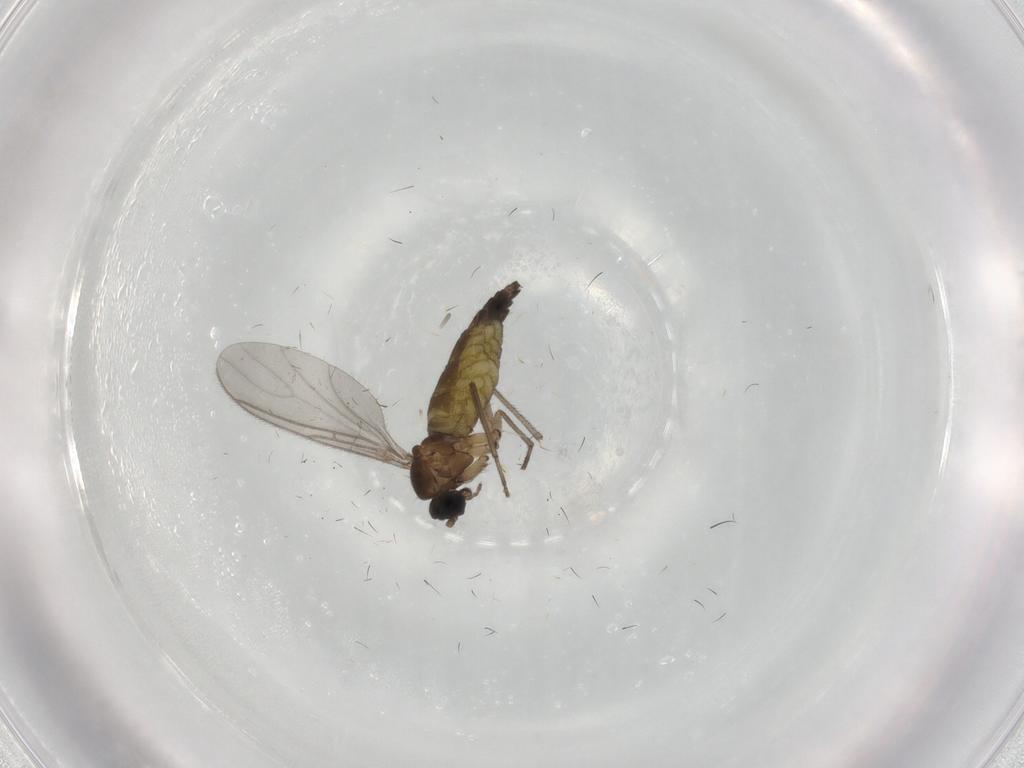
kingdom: Animalia
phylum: Arthropoda
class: Insecta
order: Diptera
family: Sciaridae
